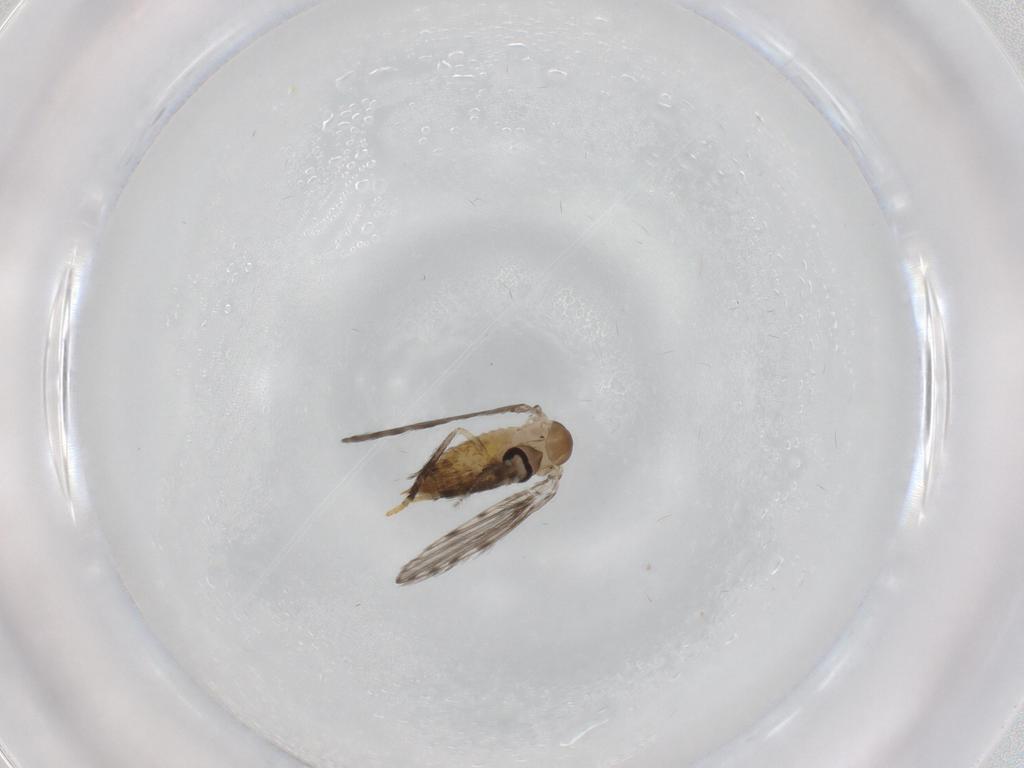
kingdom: Animalia
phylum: Arthropoda
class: Insecta
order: Diptera
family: Psychodidae
